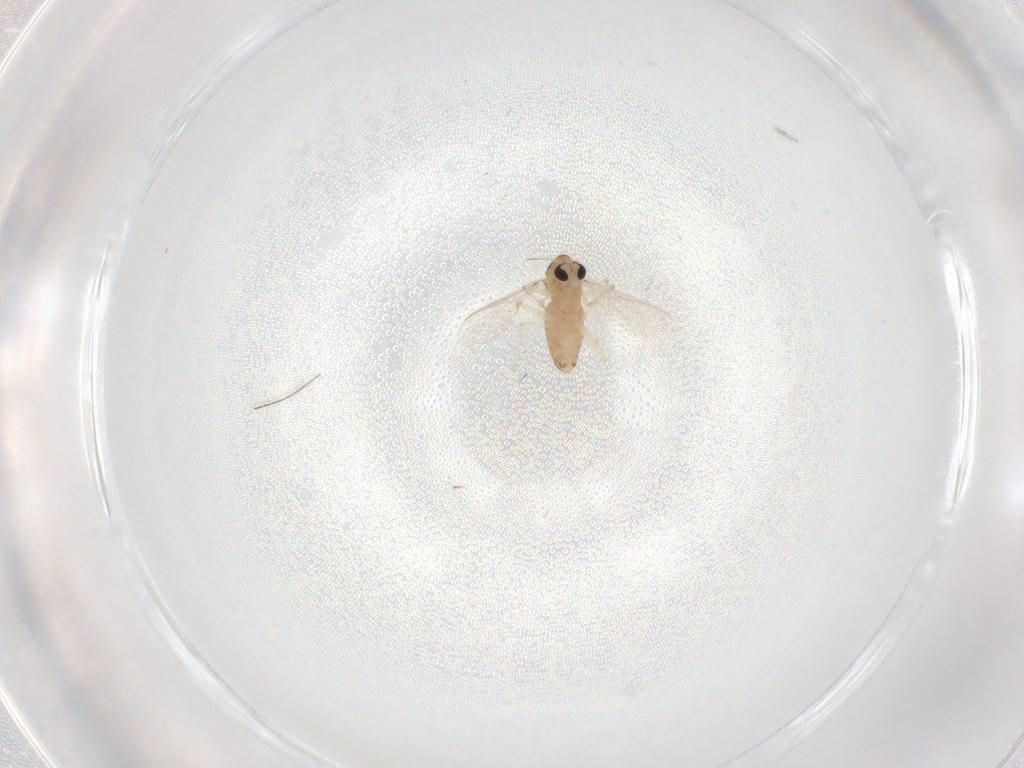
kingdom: Animalia
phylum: Arthropoda
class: Insecta
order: Diptera
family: Chironomidae
